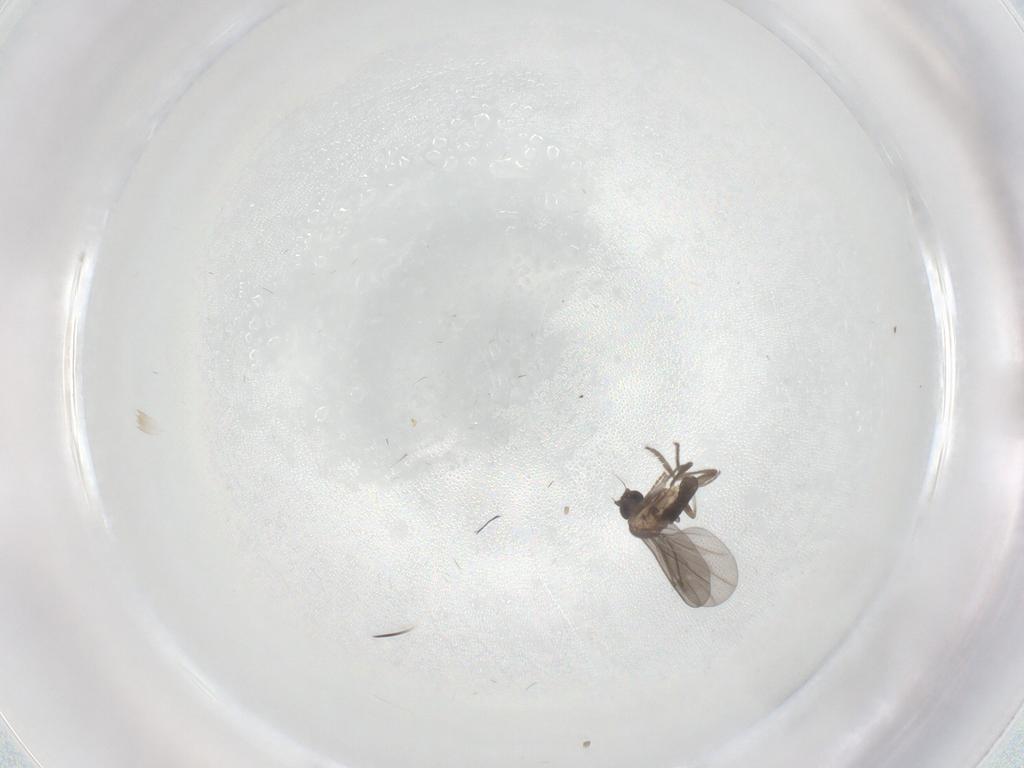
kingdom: Animalia
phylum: Arthropoda
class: Insecta
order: Diptera
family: Phoridae
